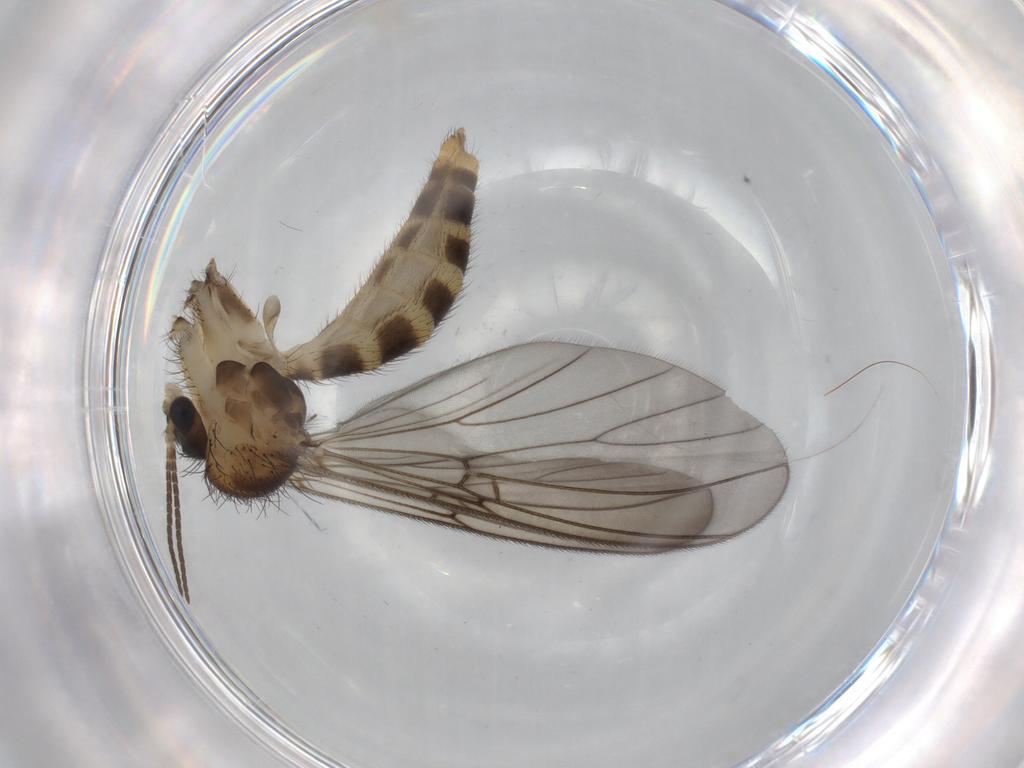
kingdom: Animalia
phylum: Arthropoda
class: Insecta
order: Diptera
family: Mycetophilidae
